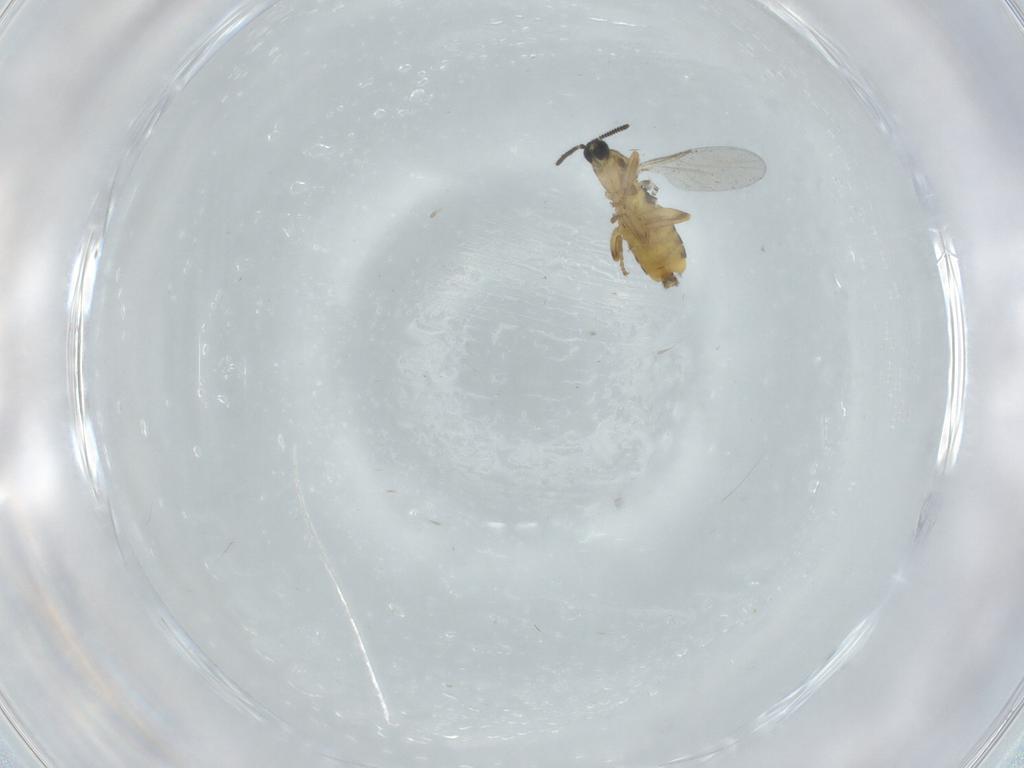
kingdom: Animalia
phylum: Arthropoda
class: Insecta
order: Diptera
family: Scatopsidae
